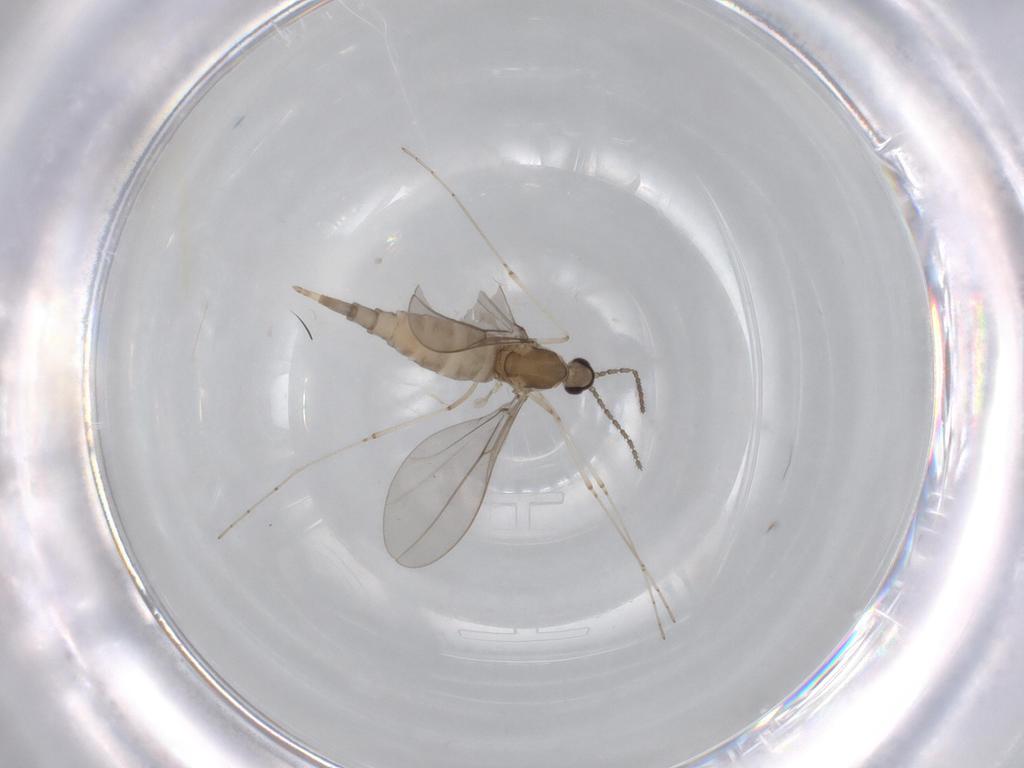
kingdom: Animalia
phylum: Arthropoda
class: Insecta
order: Diptera
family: Cecidomyiidae
